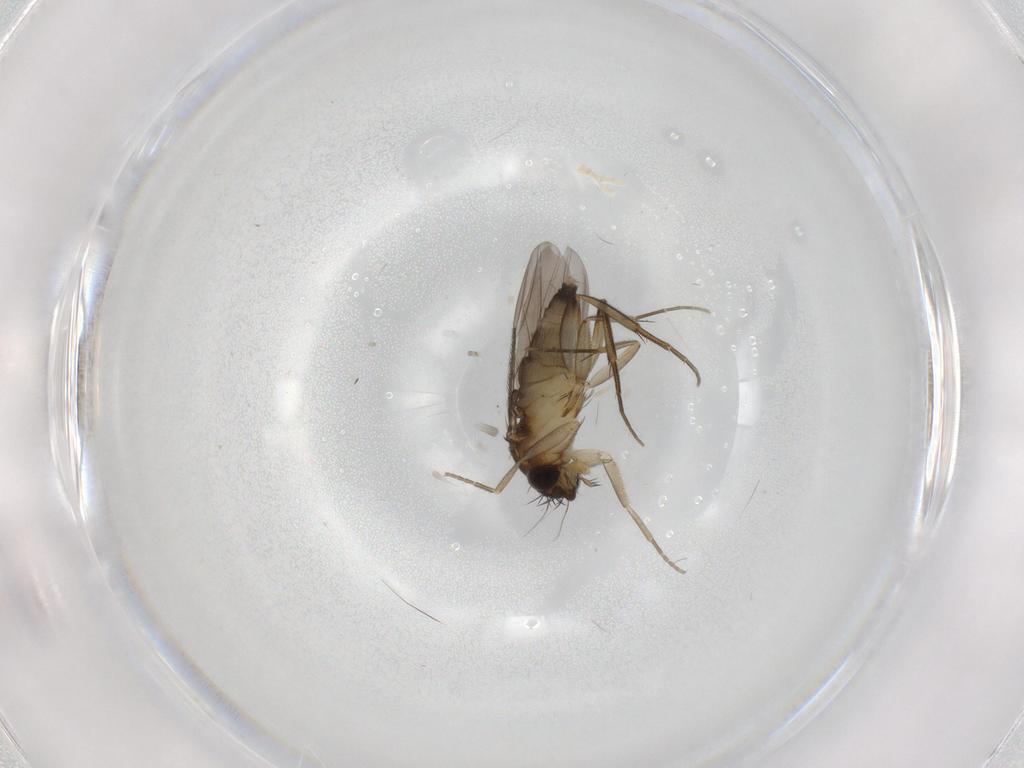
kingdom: Animalia
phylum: Arthropoda
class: Insecta
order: Diptera
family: Phoridae
